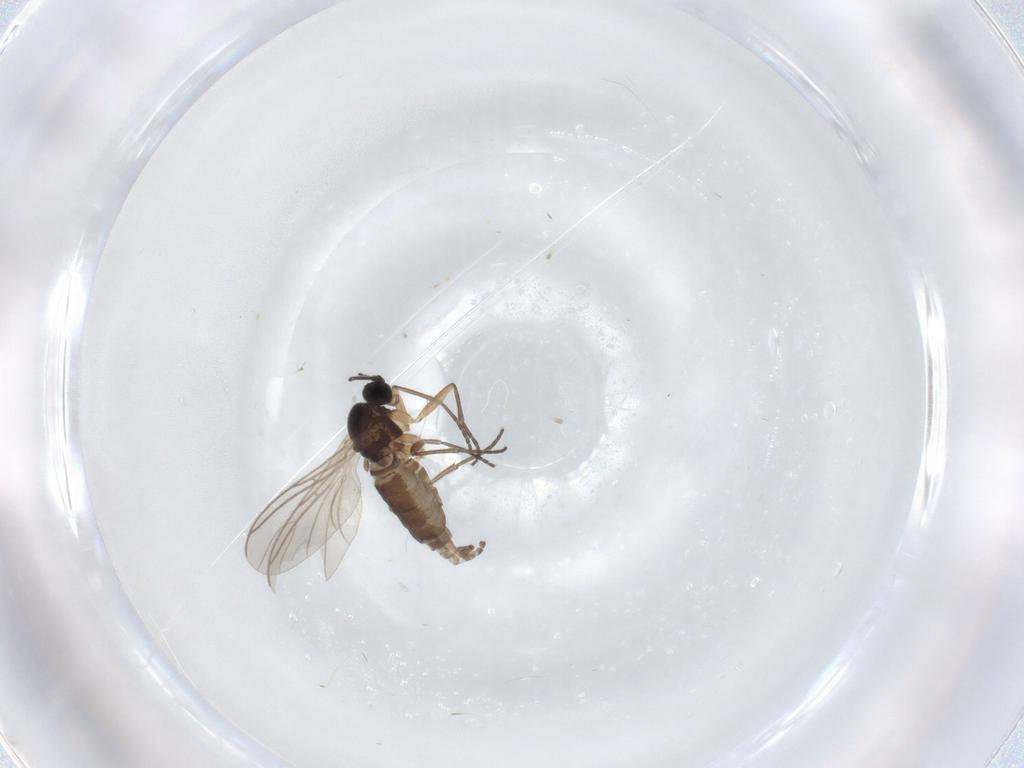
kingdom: Animalia
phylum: Arthropoda
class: Insecta
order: Diptera
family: Sciaridae
